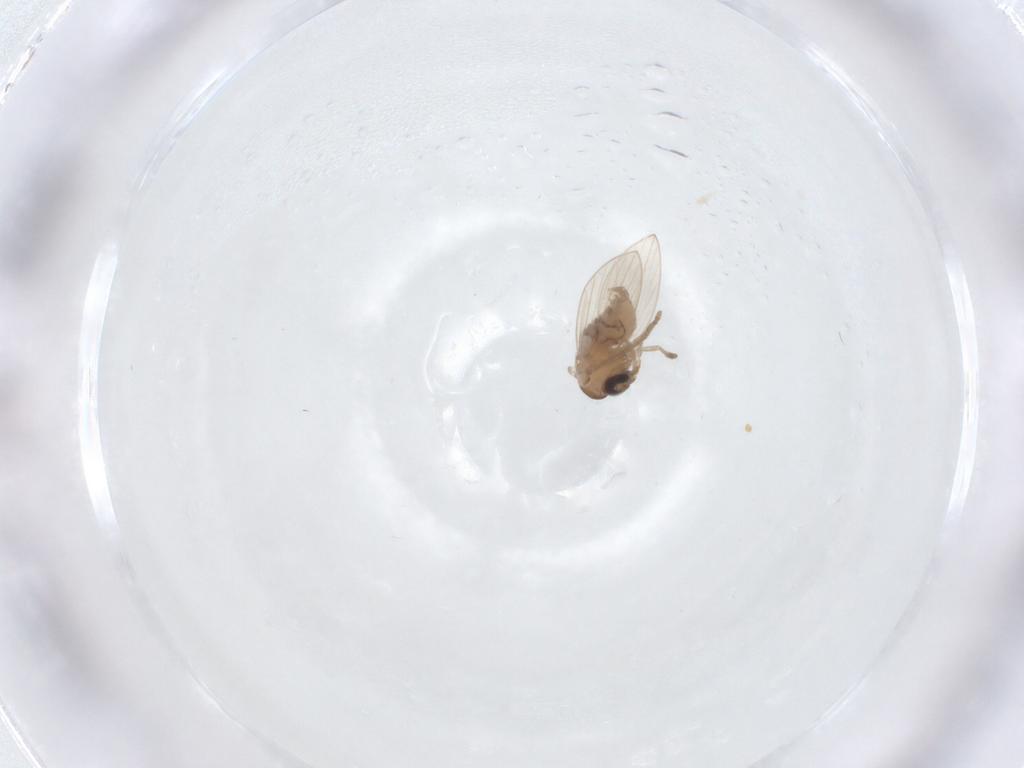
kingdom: Animalia
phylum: Arthropoda
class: Insecta
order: Diptera
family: Psychodidae
